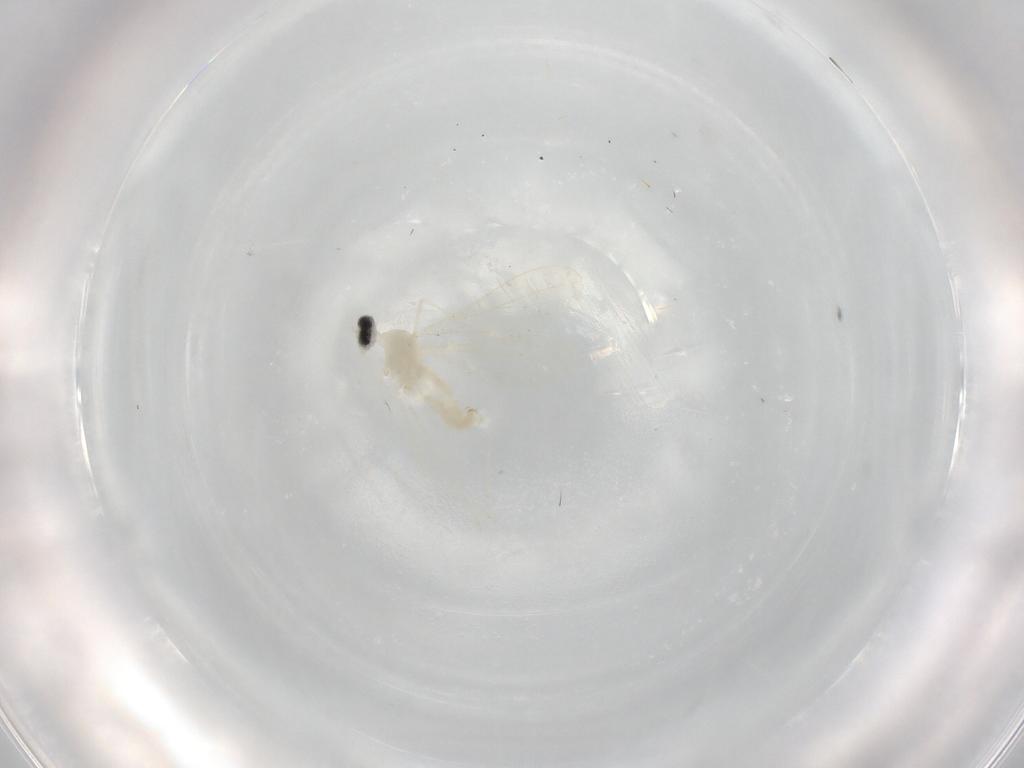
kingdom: Animalia
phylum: Arthropoda
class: Insecta
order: Diptera
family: Cecidomyiidae
